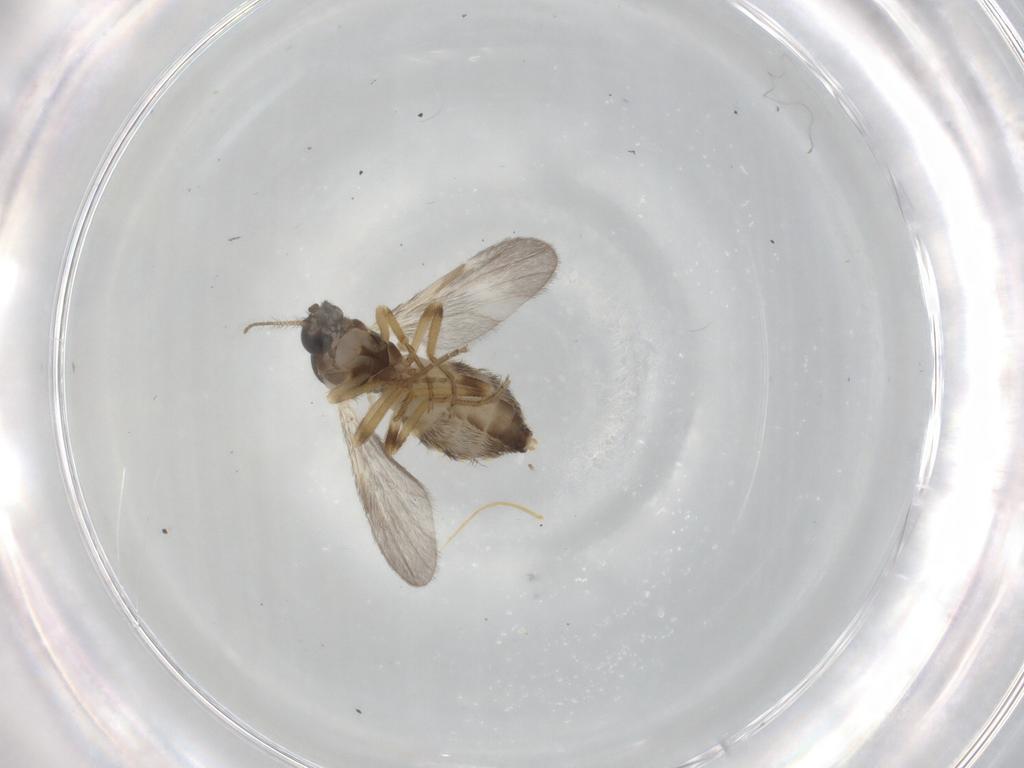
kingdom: Animalia
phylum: Arthropoda
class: Insecta
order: Diptera
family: Ceratopogonidae
